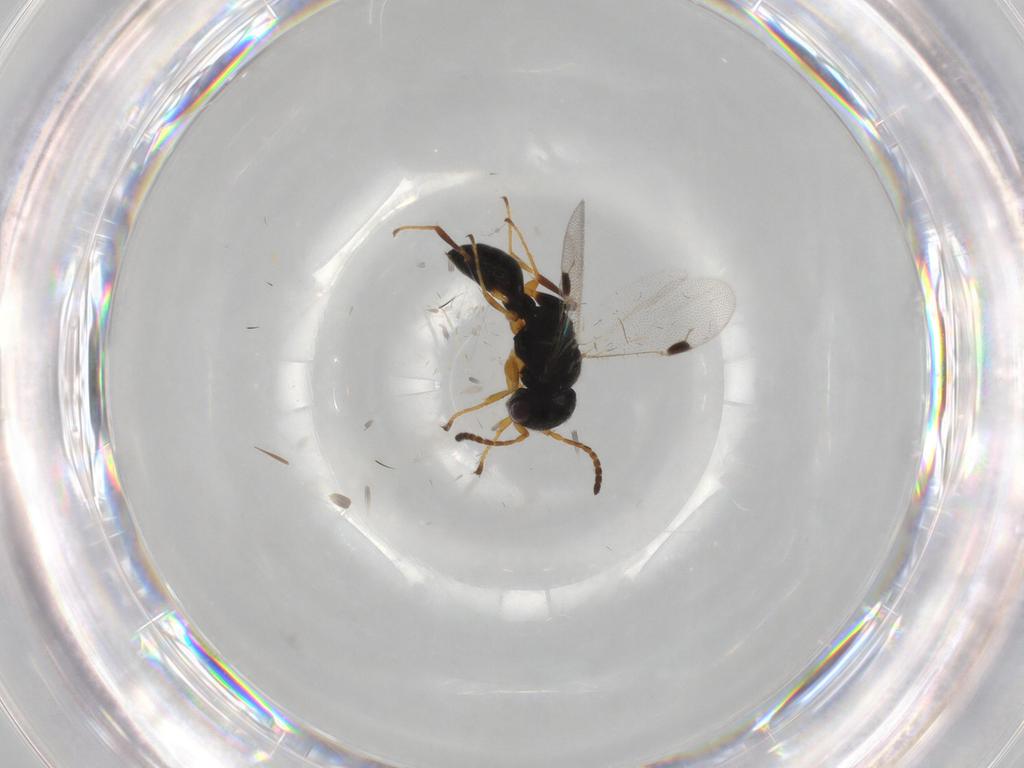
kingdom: Animalia
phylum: Arthropoda
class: Insecta
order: Hymenoptera
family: Dryinidae
